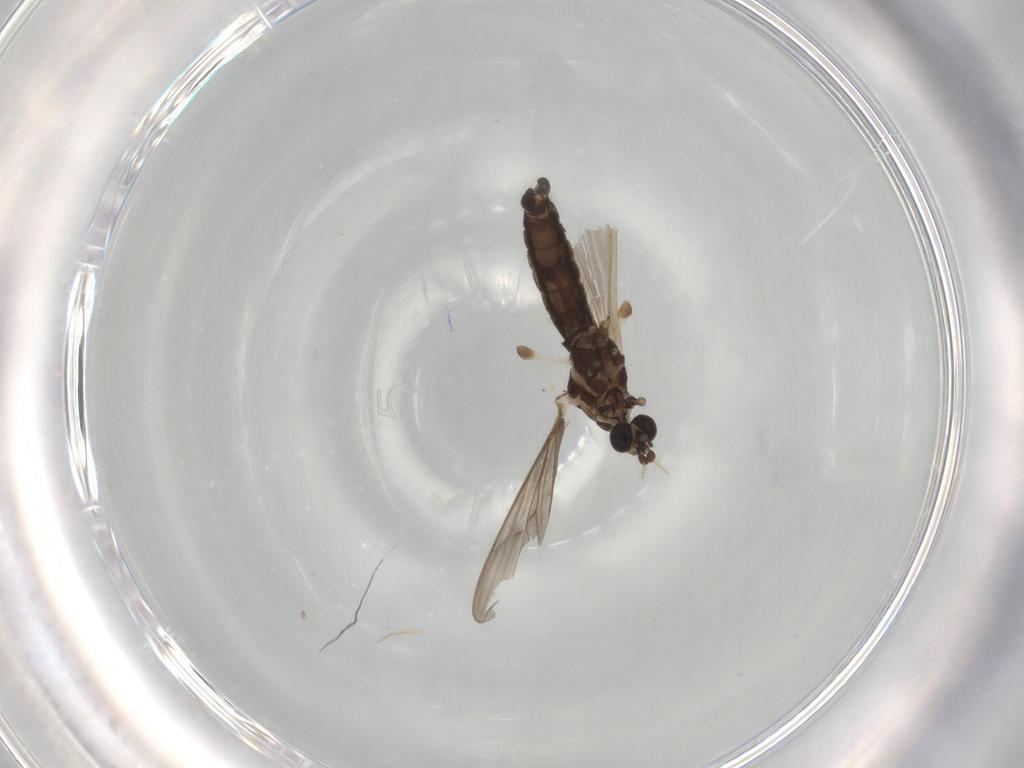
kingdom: Animalia
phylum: Arthropoda
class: Insecta
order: Diptera
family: Limoniidae
